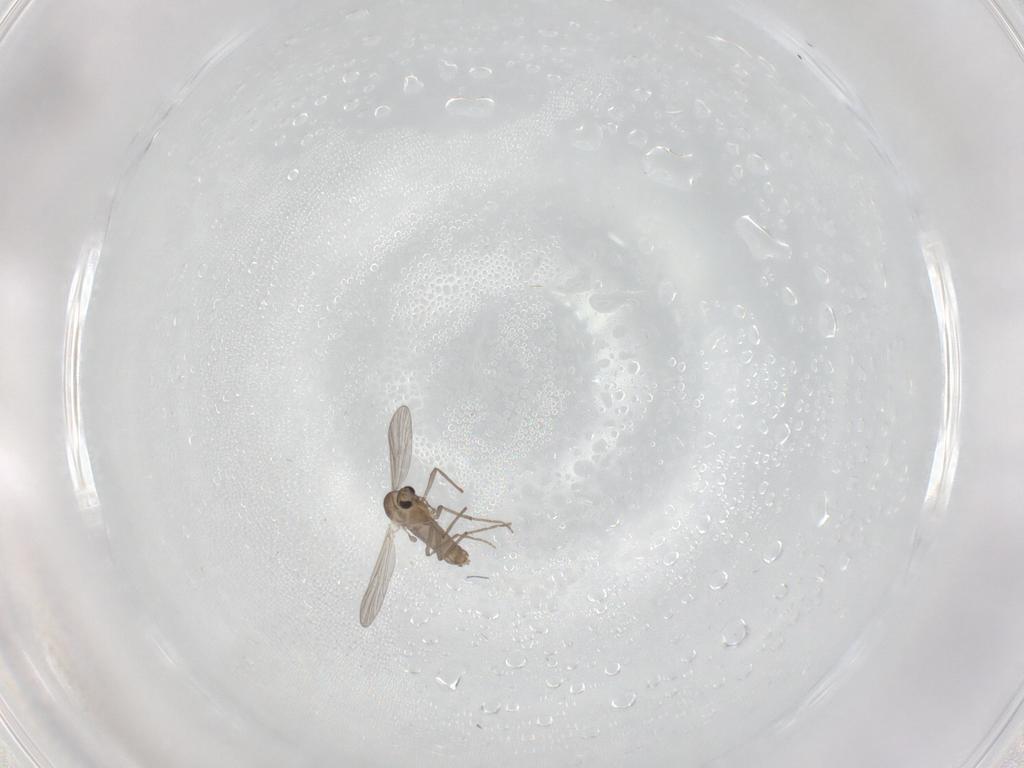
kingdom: Animalia
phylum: Arthropoda
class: Insecta
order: Diptera
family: Chironomidae
